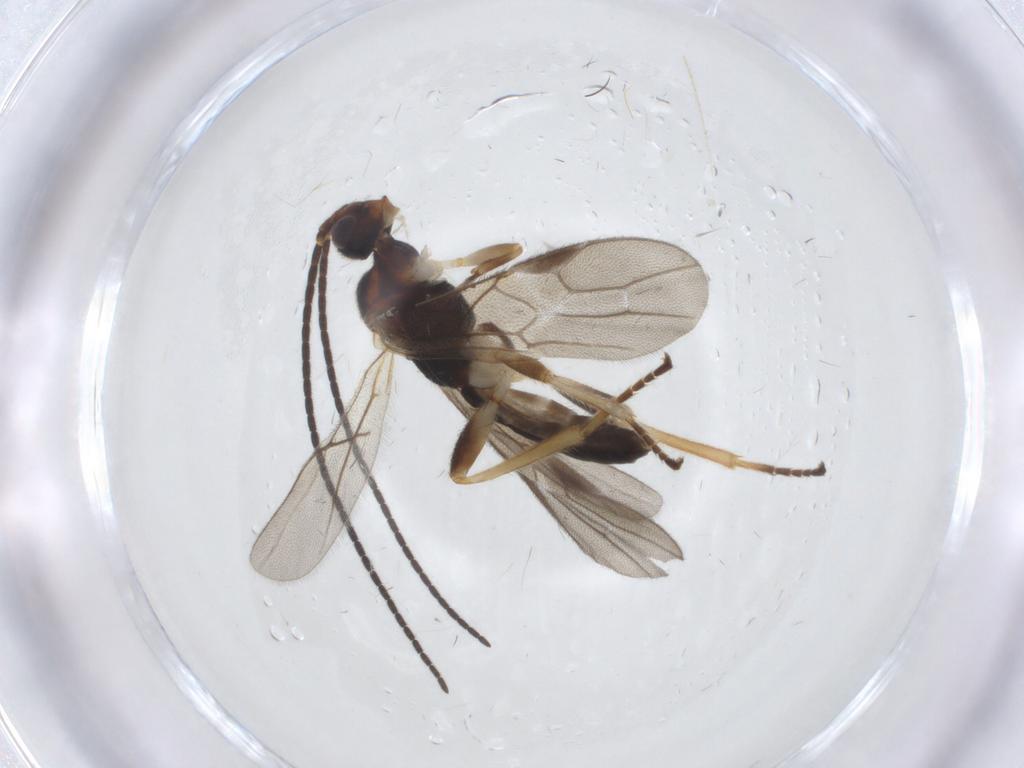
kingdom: Animalia
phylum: Arthropoda
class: Insecta
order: Hymenoptera
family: Braconidae
